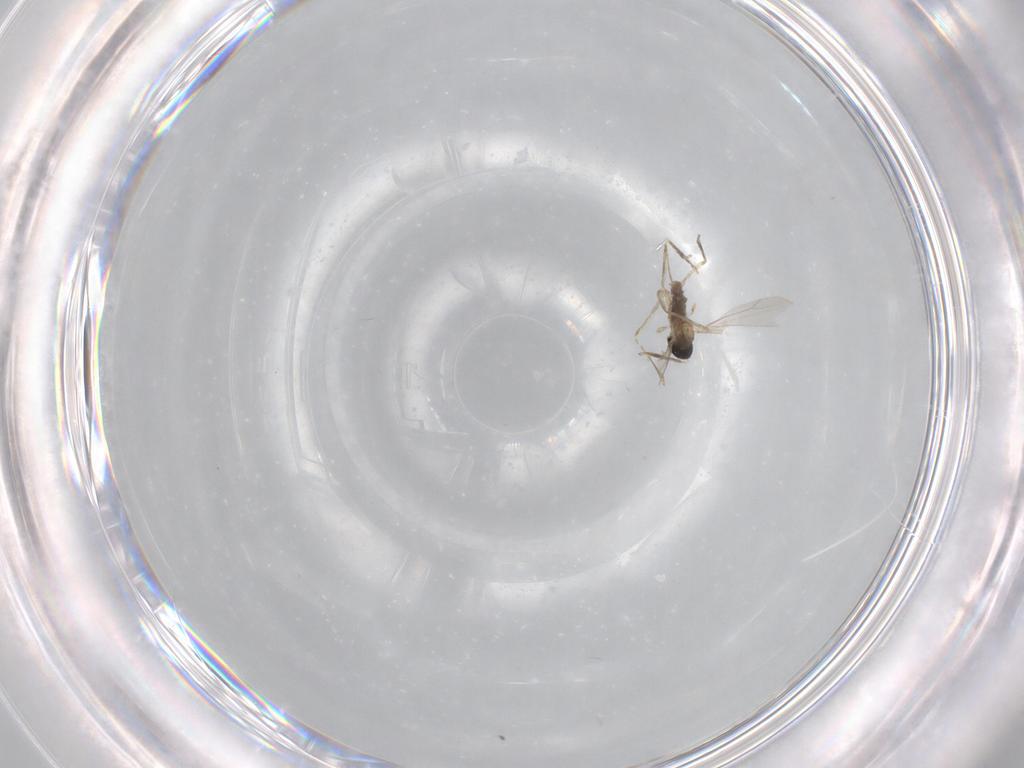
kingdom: Animalia
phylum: Arthropoda
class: Insecta
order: Diptera
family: Cecidomyiidae
